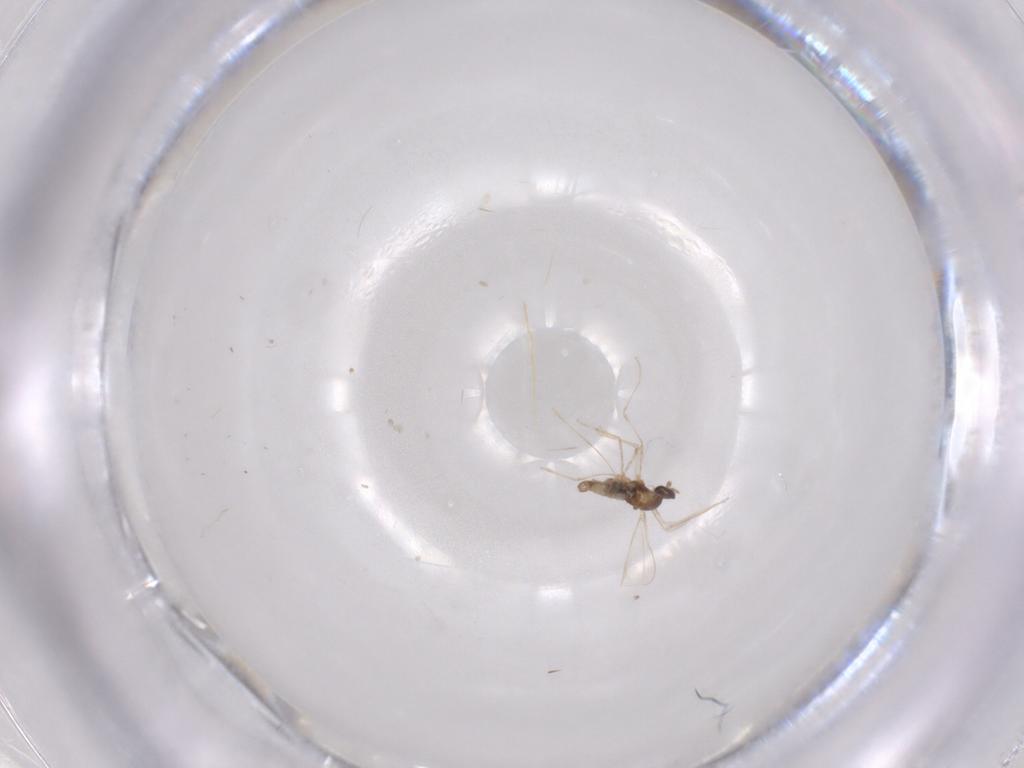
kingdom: Animalia
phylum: Arthropoda
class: Insecta
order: Diptera
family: Cecidomyiidae
